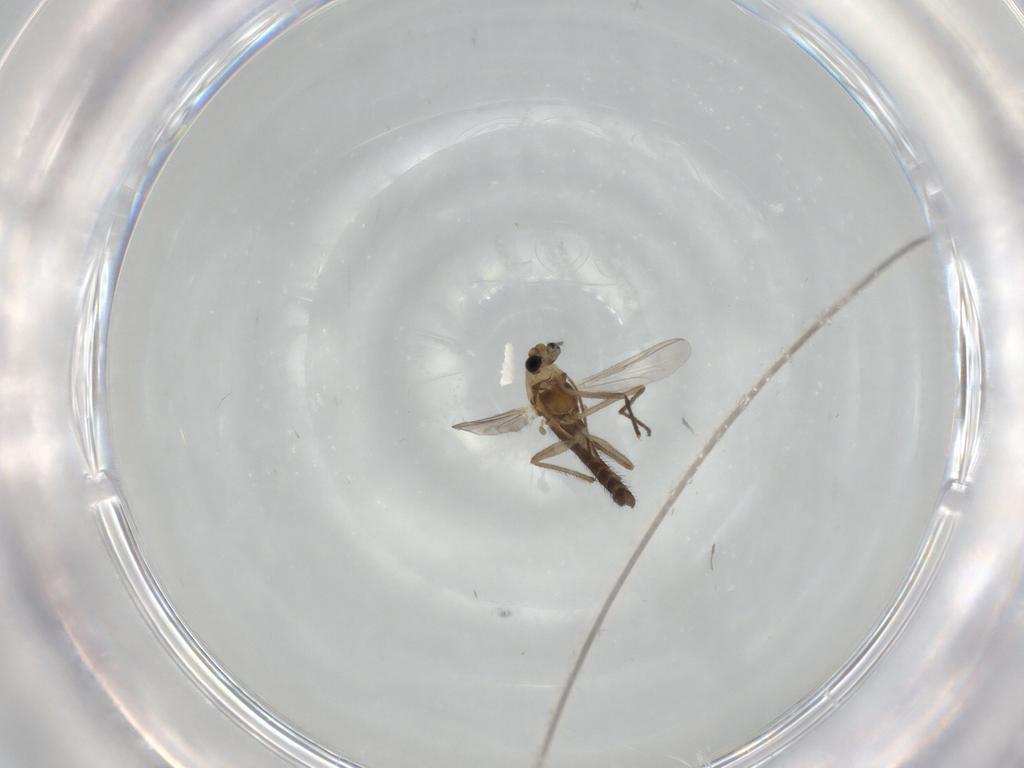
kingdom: Animalia
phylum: Arthropoda
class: Insecta
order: Diptera
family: Chironomidae
